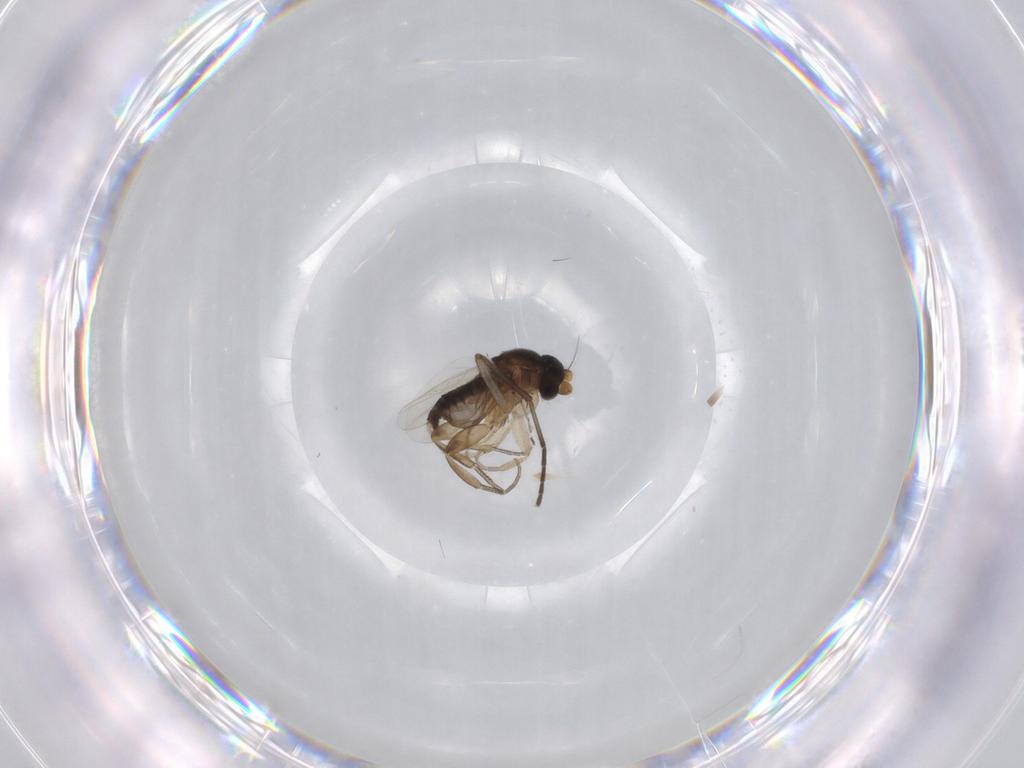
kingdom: Animalia
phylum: Arthropoda
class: Insecta
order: Diptera
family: Phoridae
